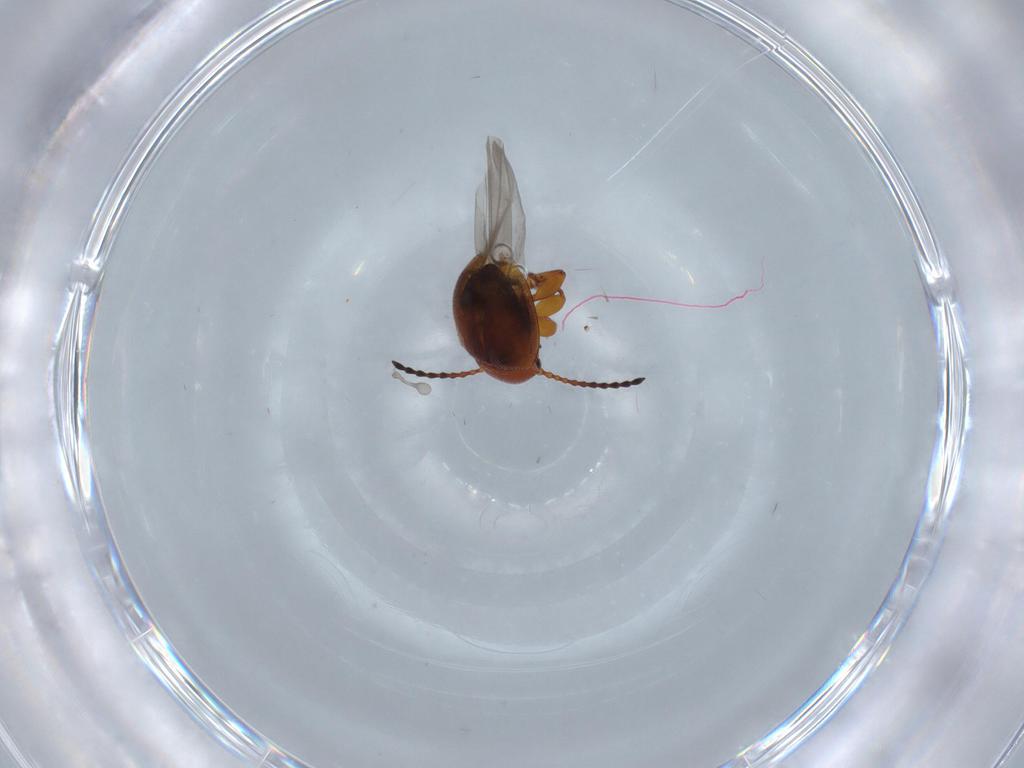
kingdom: Animalia
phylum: Arthropoda
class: Insecta
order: Coleoptera
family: Chrysomelidae
